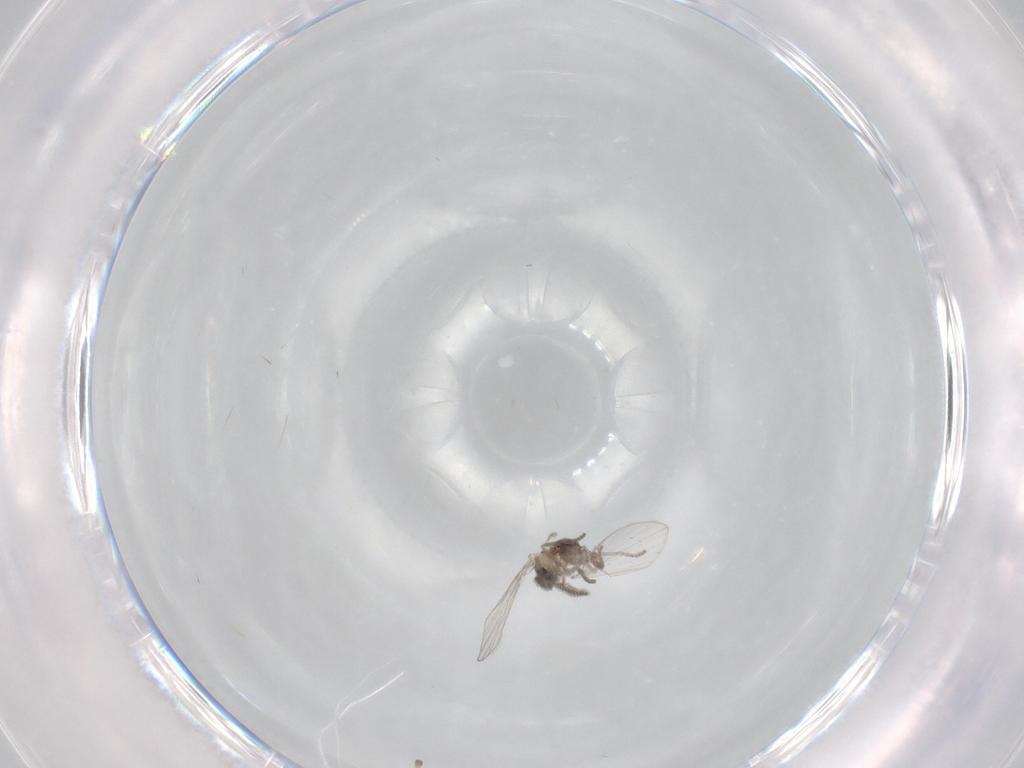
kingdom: Animalia
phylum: Arthropoda
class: Insecta
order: Diptera
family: Psychodidae
